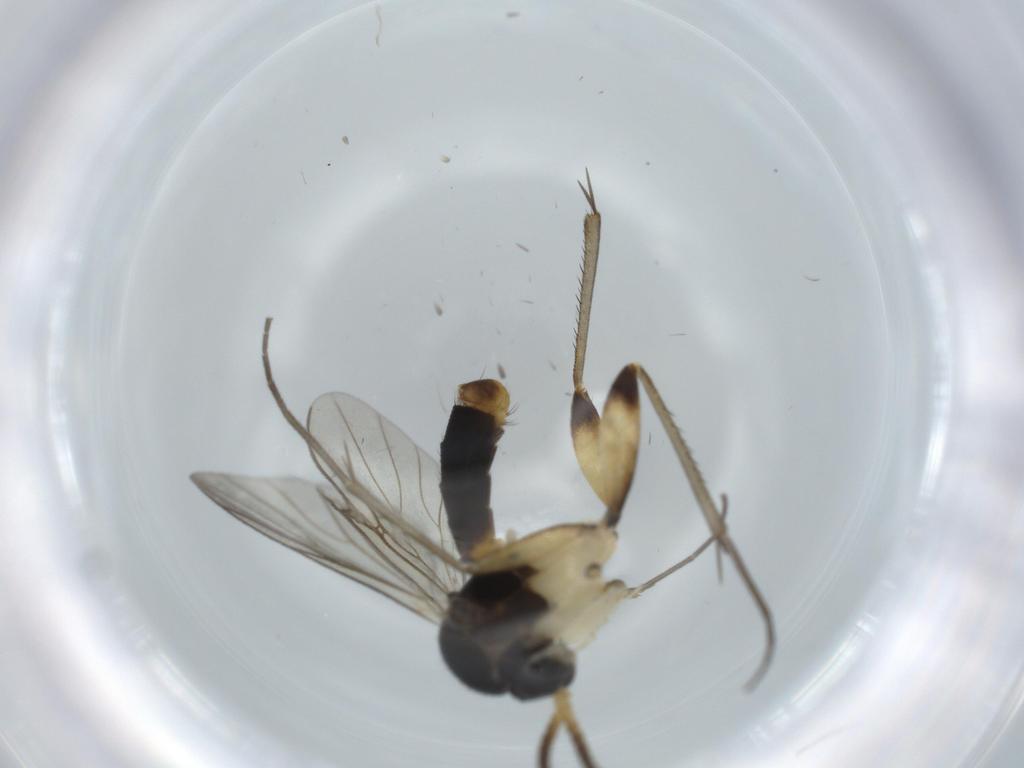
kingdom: Animalia
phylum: Arthropoda
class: Insecta
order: Diptera
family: Mycetophilidae
